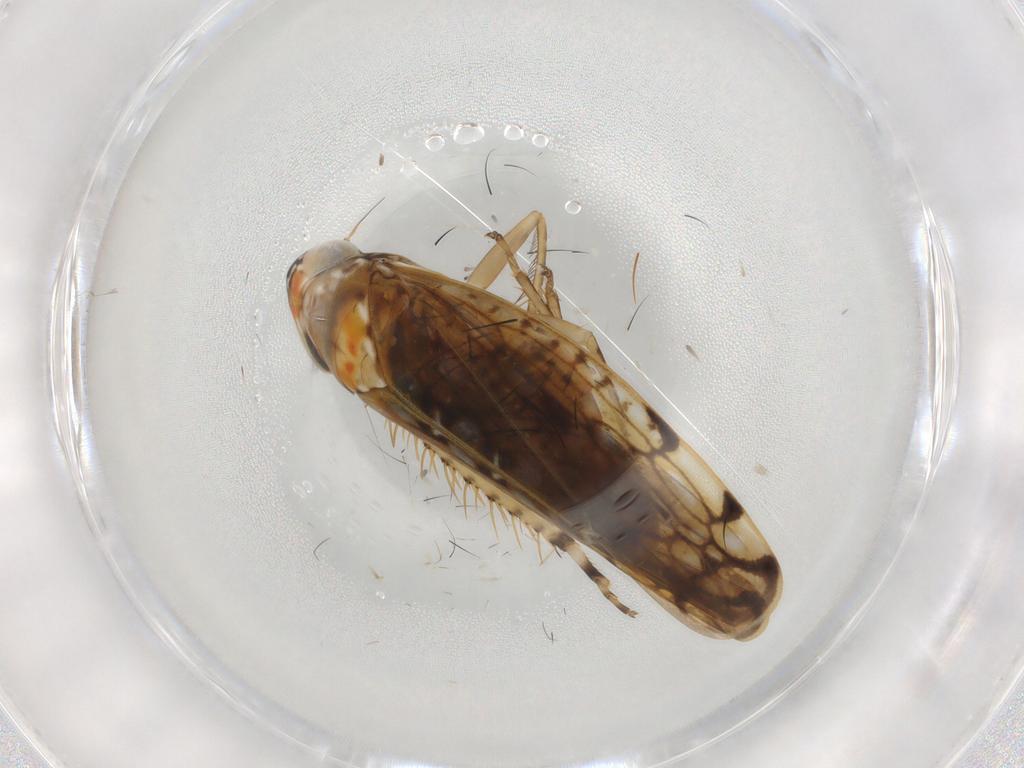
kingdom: Animalia
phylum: Arthropoda
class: Insecta
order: Hemiptera
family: Cicadellidae
